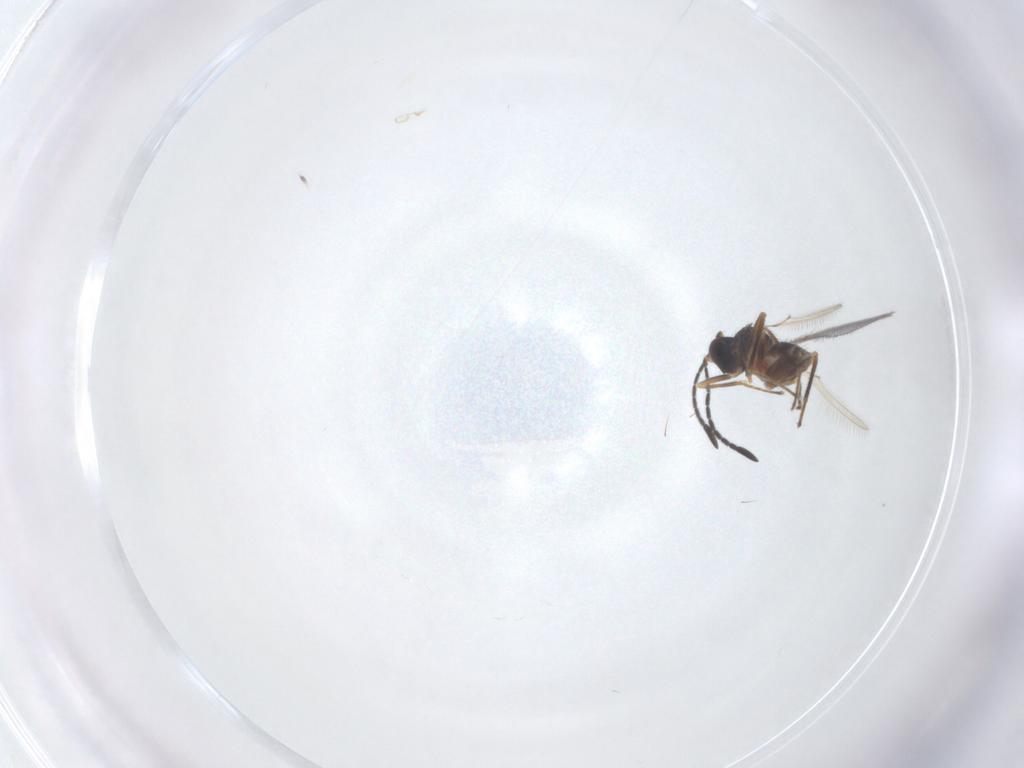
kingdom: Animalia
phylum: Arthropoda
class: Insecta
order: Hymenoptera
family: Mymaridae
